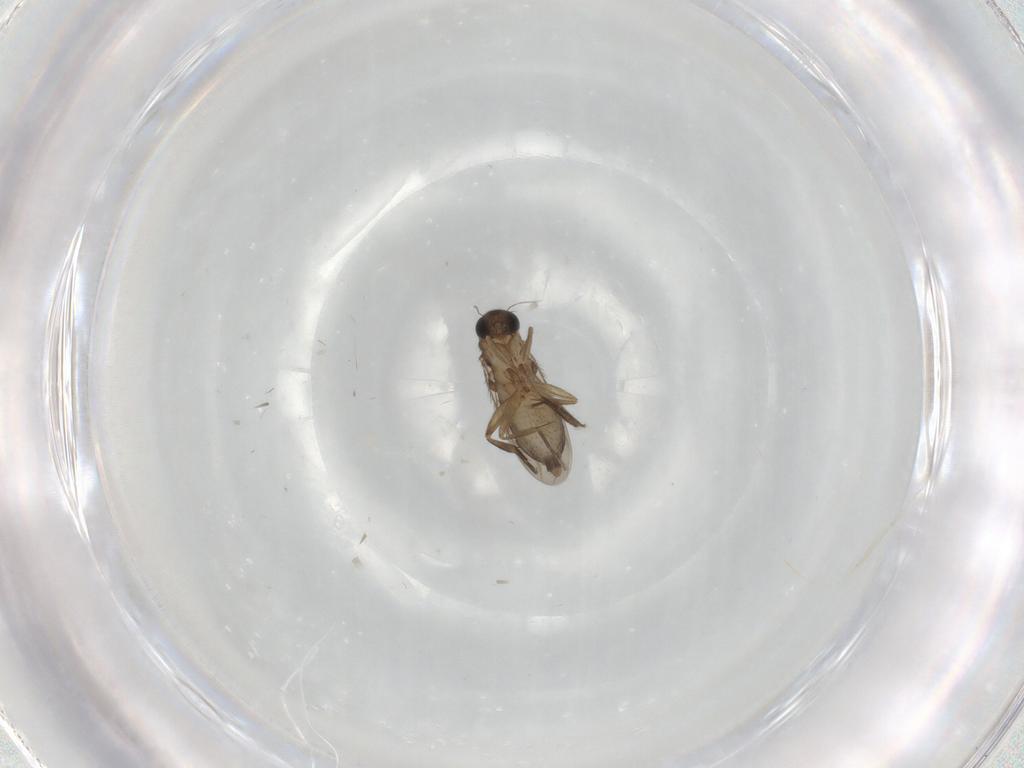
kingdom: Animalia
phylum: Arthropoda
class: Insecta
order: Diptera
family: Phoridae
